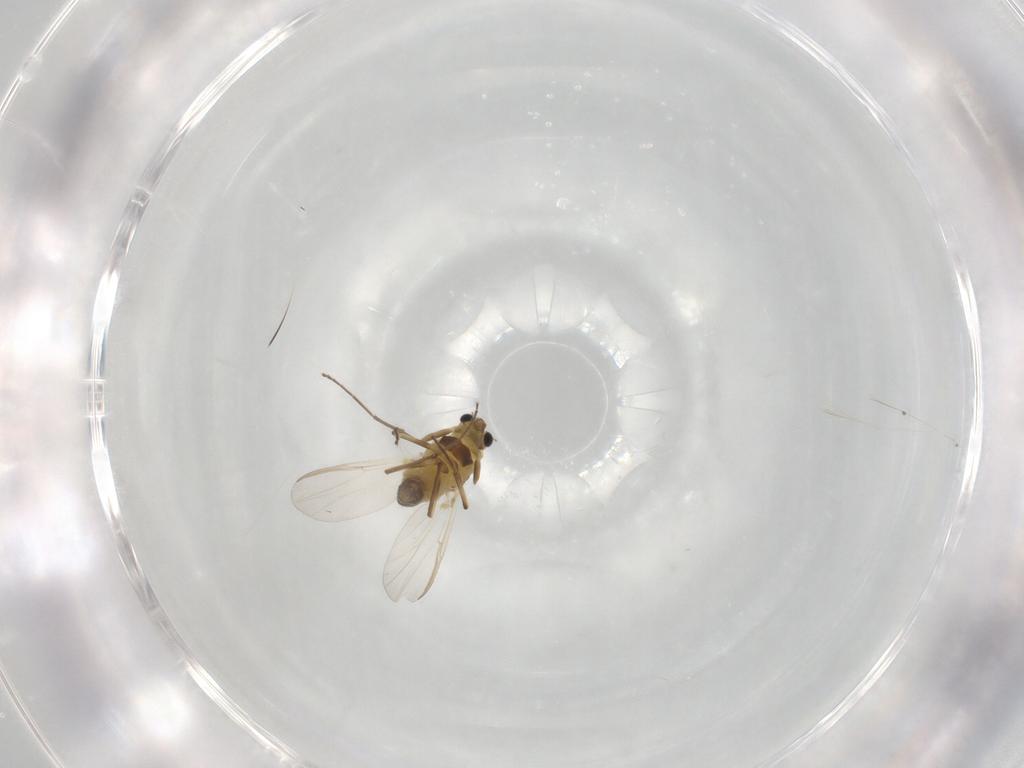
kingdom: Animalia
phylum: Arthropoda
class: Insecta
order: Diptera
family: Chironomidae
